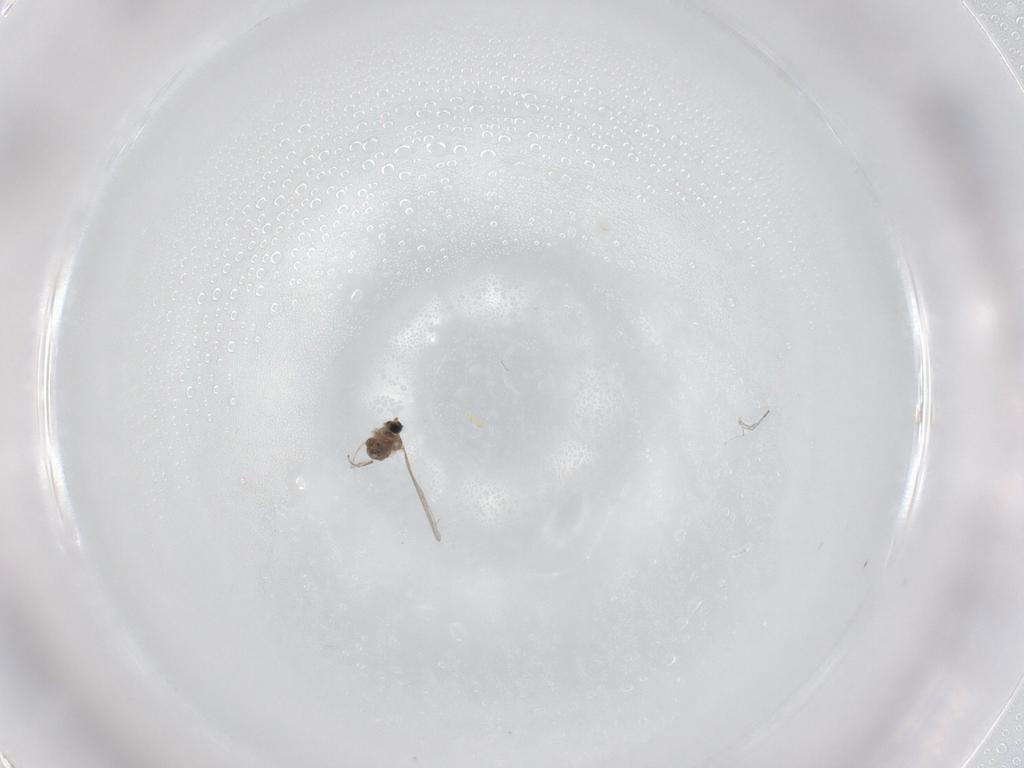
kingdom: Animalia
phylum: Arthropoda
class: Insecta
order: Diptera
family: Cecidomyiidae
